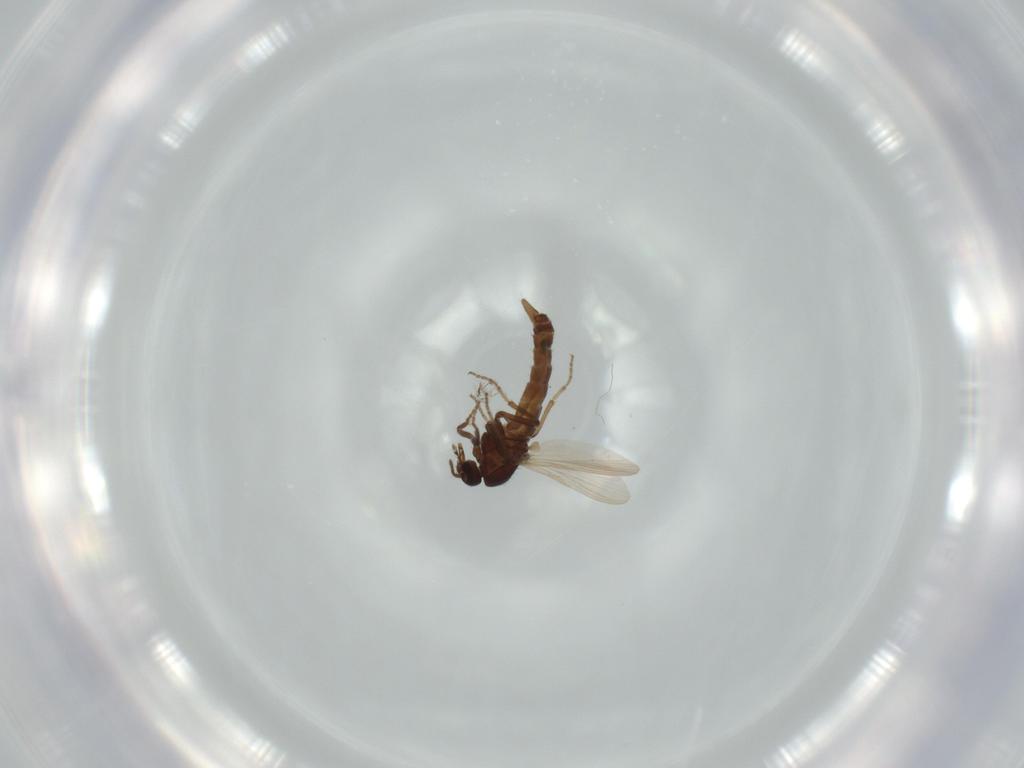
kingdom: Animalia
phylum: Arthropoda
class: Insecta
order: Diptera
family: Ceratopogonidae
